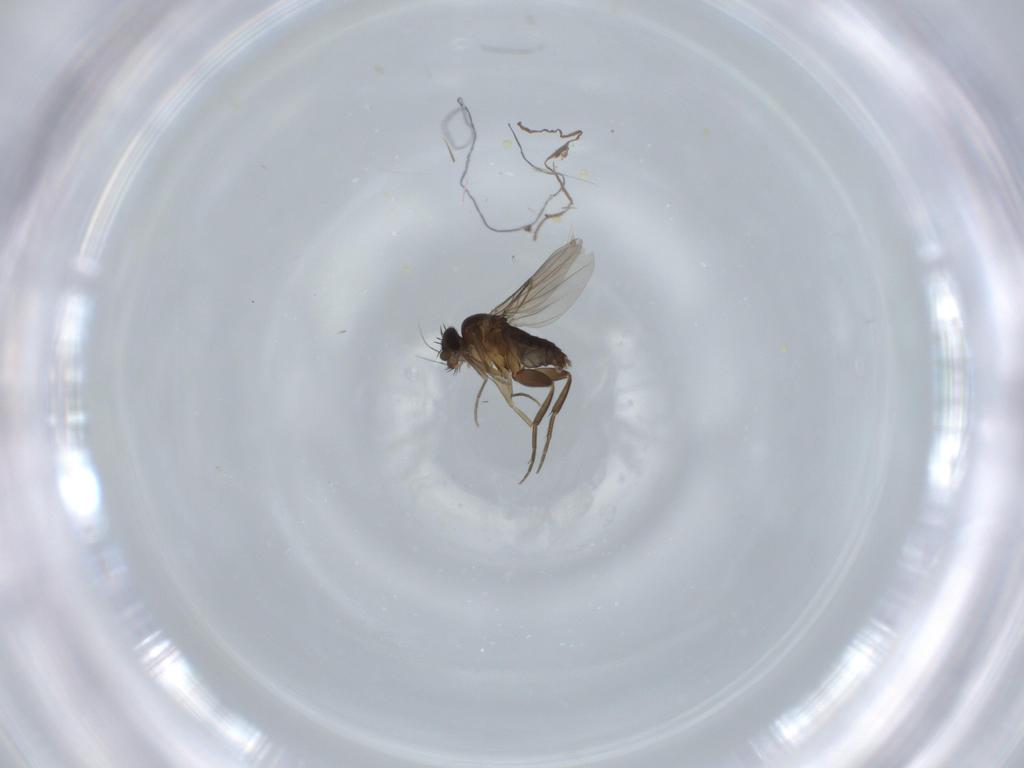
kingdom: Animalia
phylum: Arthropoda
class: Insecta
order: Diptera
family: Phoridae
